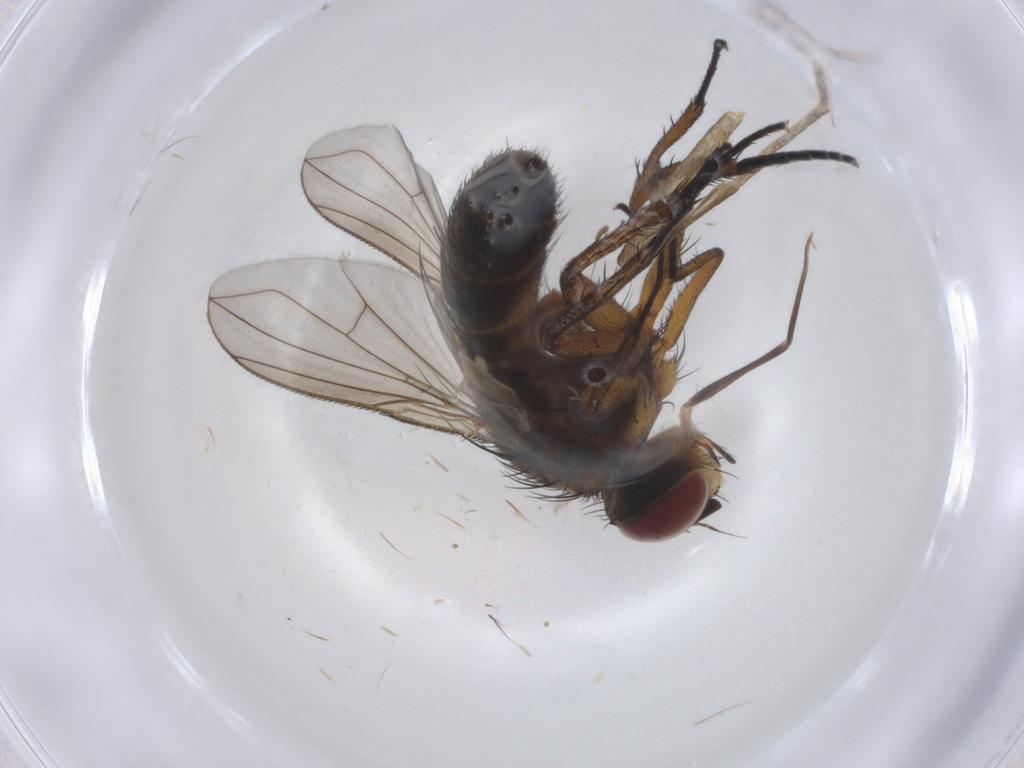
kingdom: Animalia
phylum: Arthropoda
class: Insecta
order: Diptera
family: Tachinidae
